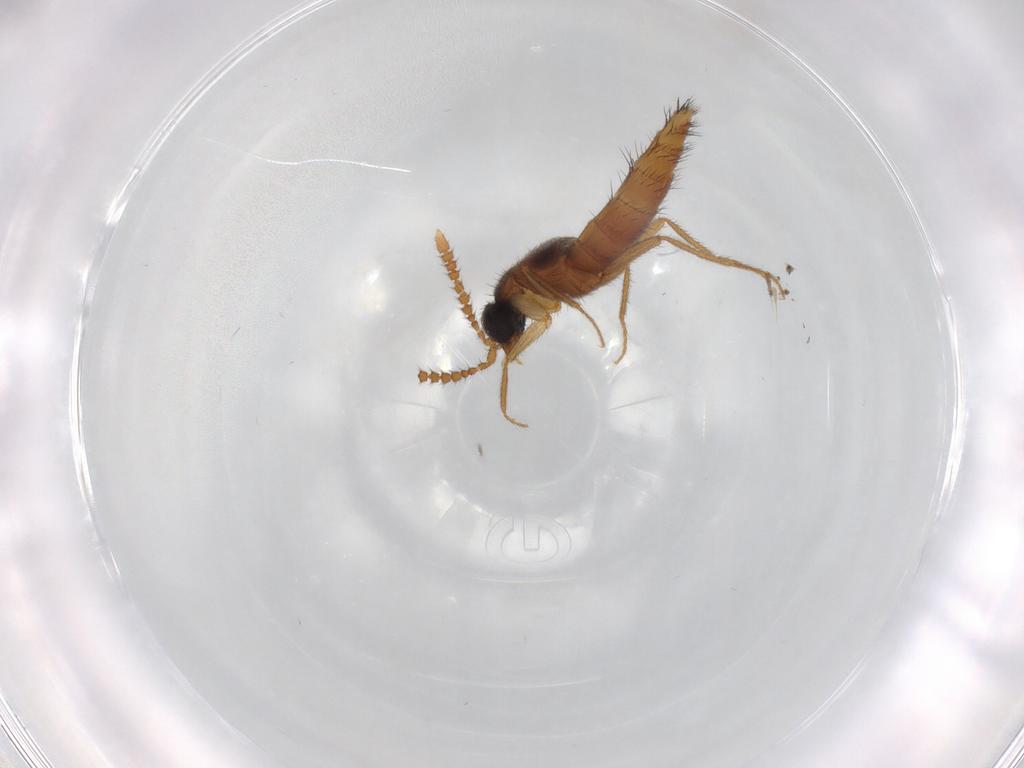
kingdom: Animalia
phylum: Arthropoda
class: Insecta
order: Coleoptera
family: Staphylinidae
